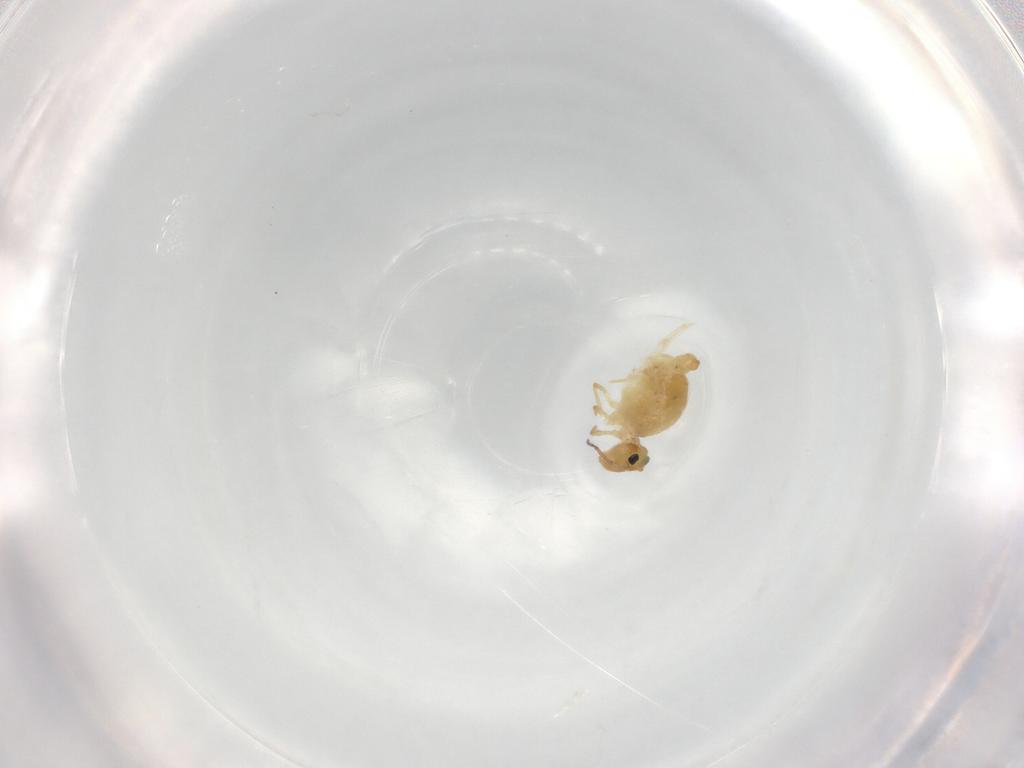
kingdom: Animalia
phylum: Arthropoda
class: Collembola
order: Symphypleona
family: Bourletiellidae
